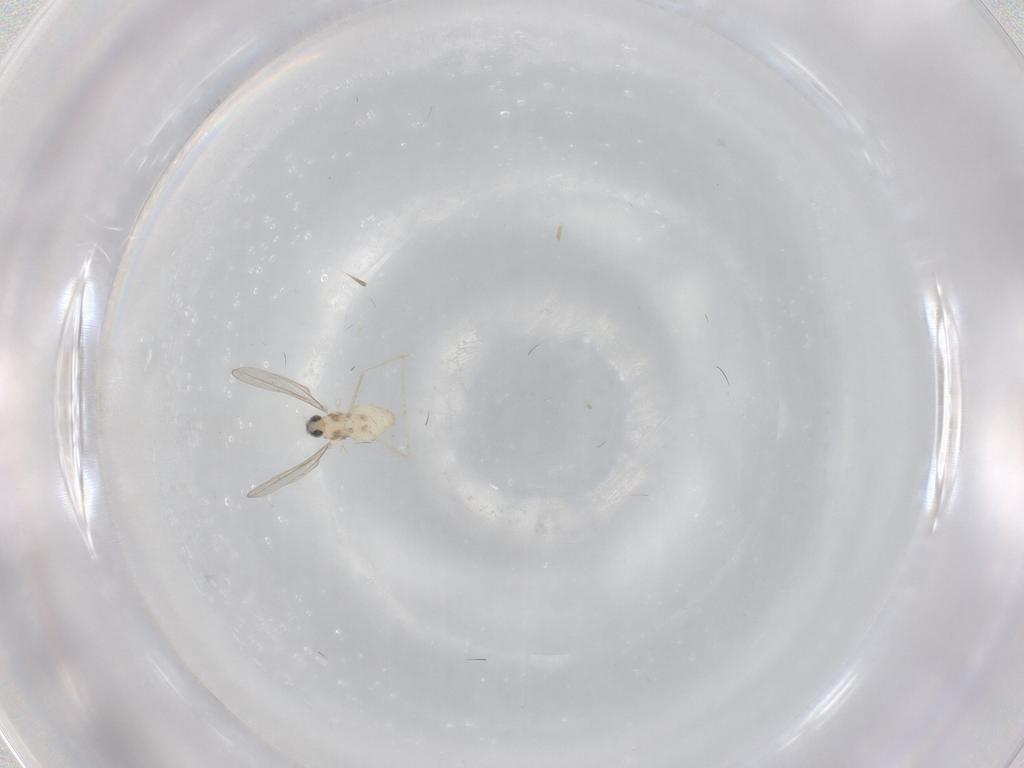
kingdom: Animalia
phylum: Arthropoda
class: Insecta
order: Diptera
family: Cecidomyiidae
